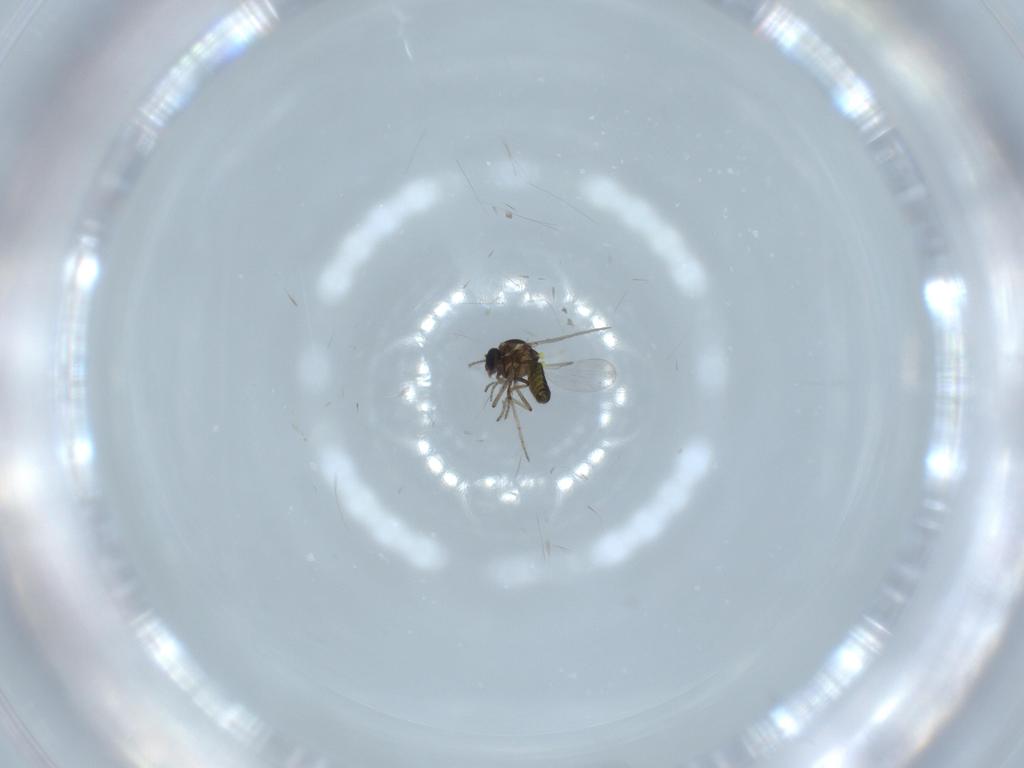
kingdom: Animalia
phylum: Arthropoda
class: Insecta
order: Diptera
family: Ceratopogonidae
